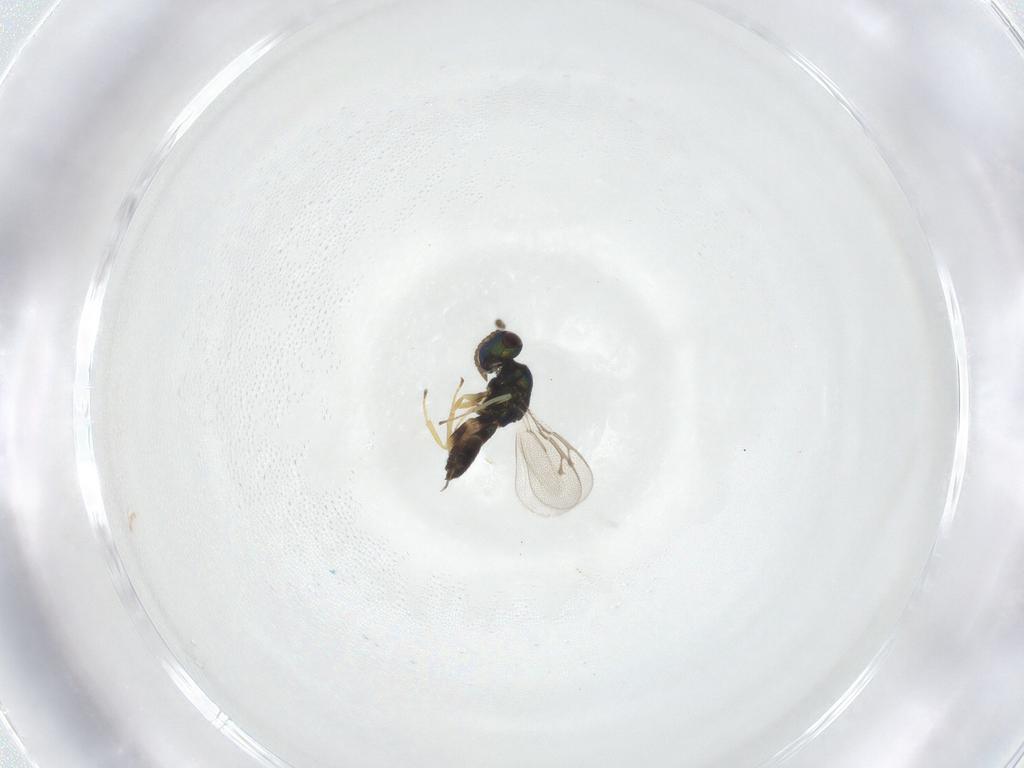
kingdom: Animalia
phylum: Arthropoda
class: Insecta
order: Hymenoptera
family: Pteromalidae
